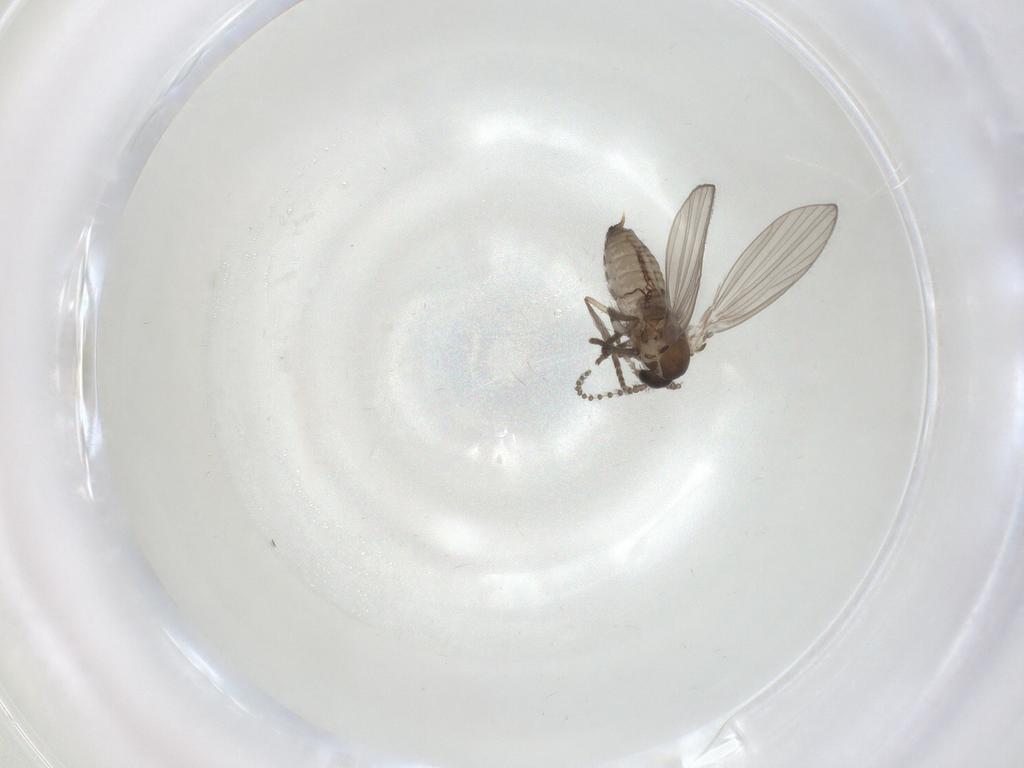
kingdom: Animalia
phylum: Arthropoda
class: Insecta
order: Diptera
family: Psychodidae
